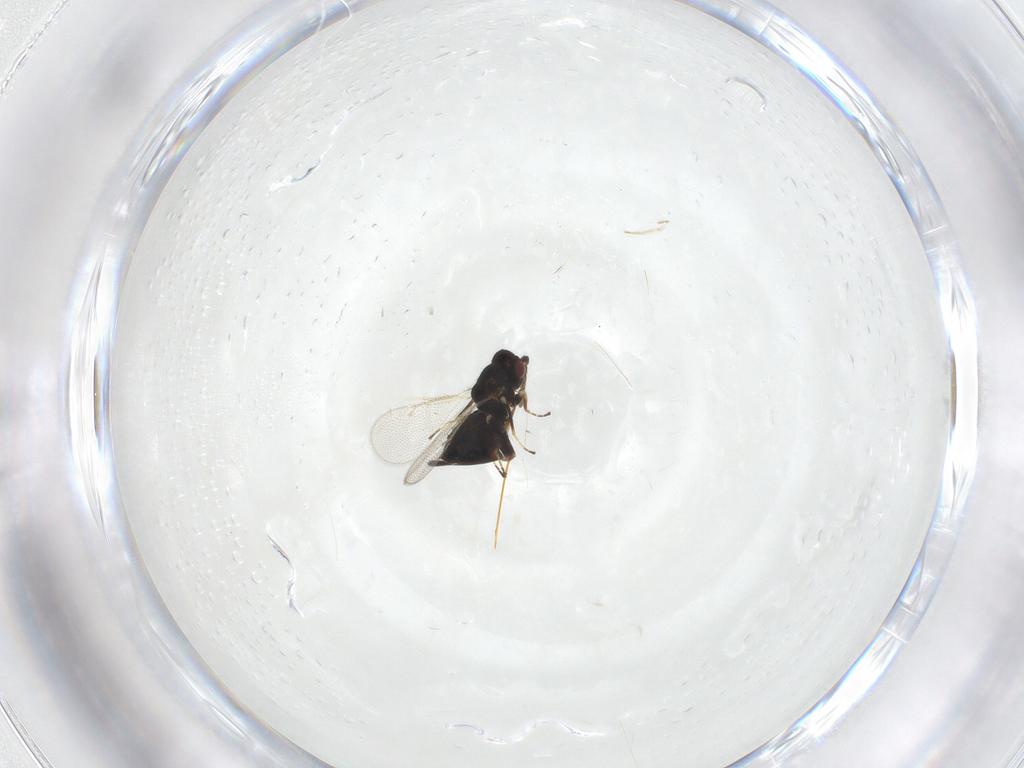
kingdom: Animalia
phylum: Arthropoda
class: Insecta
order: Hymenoptera
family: Eulophidae
